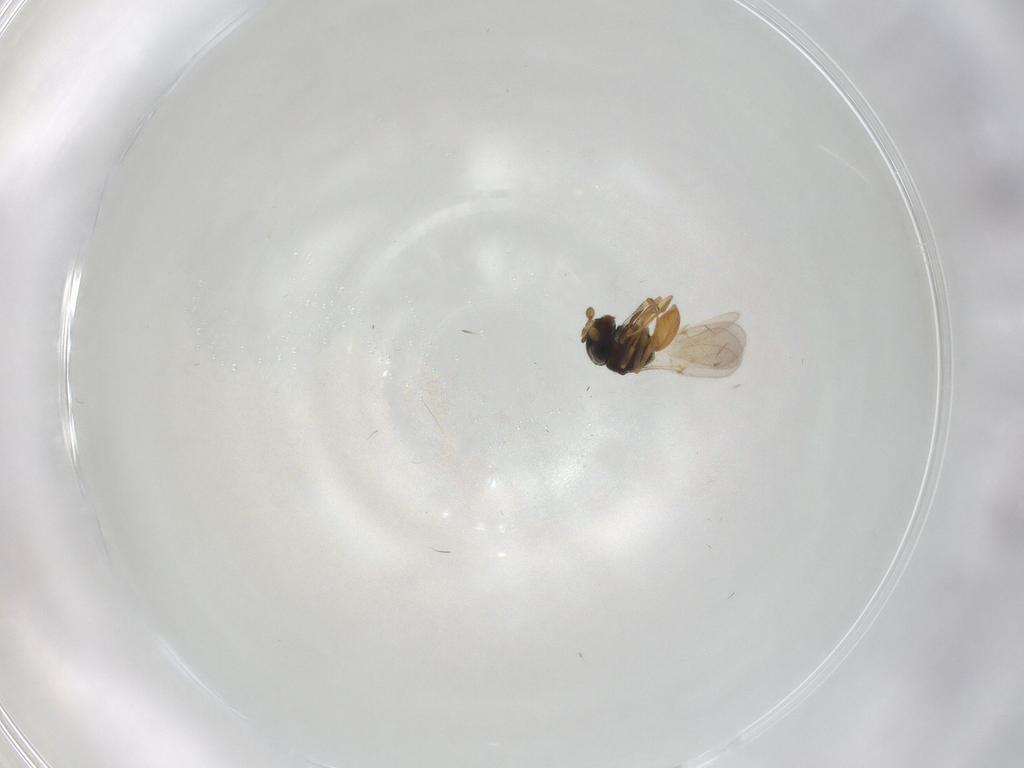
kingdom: Animalia
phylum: Arthropoda
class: Insecta
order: Hymenoptera
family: Scelionidae
